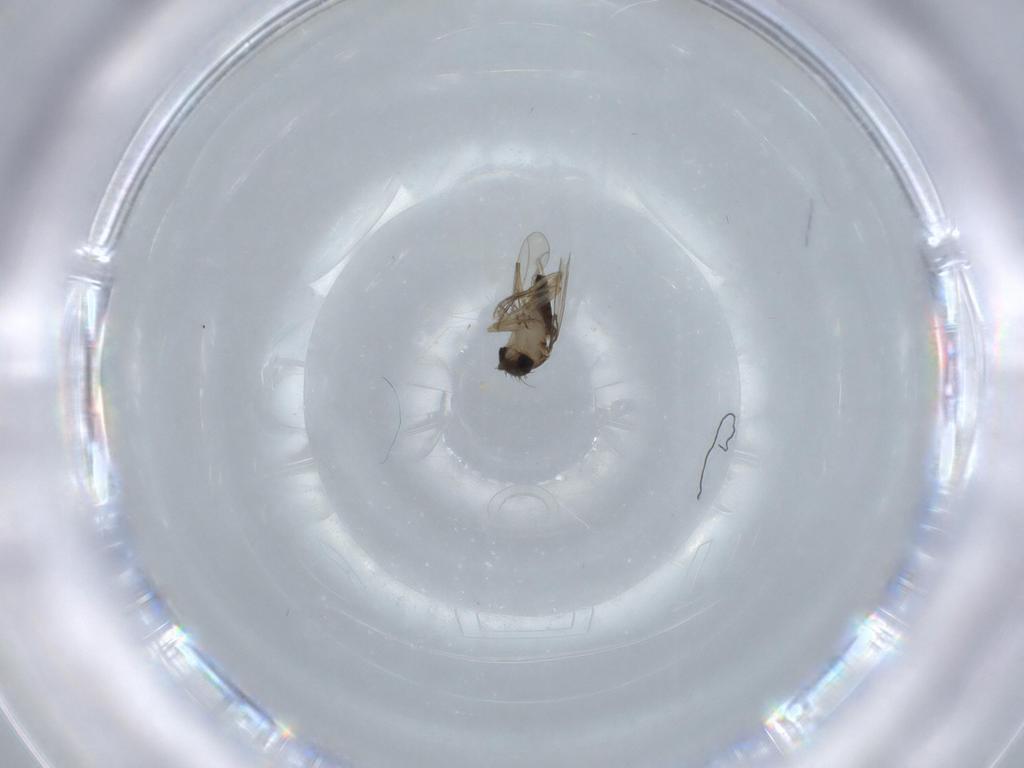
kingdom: Animalia
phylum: Arthropoda
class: Insecta
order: Diptera
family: Phoridae
